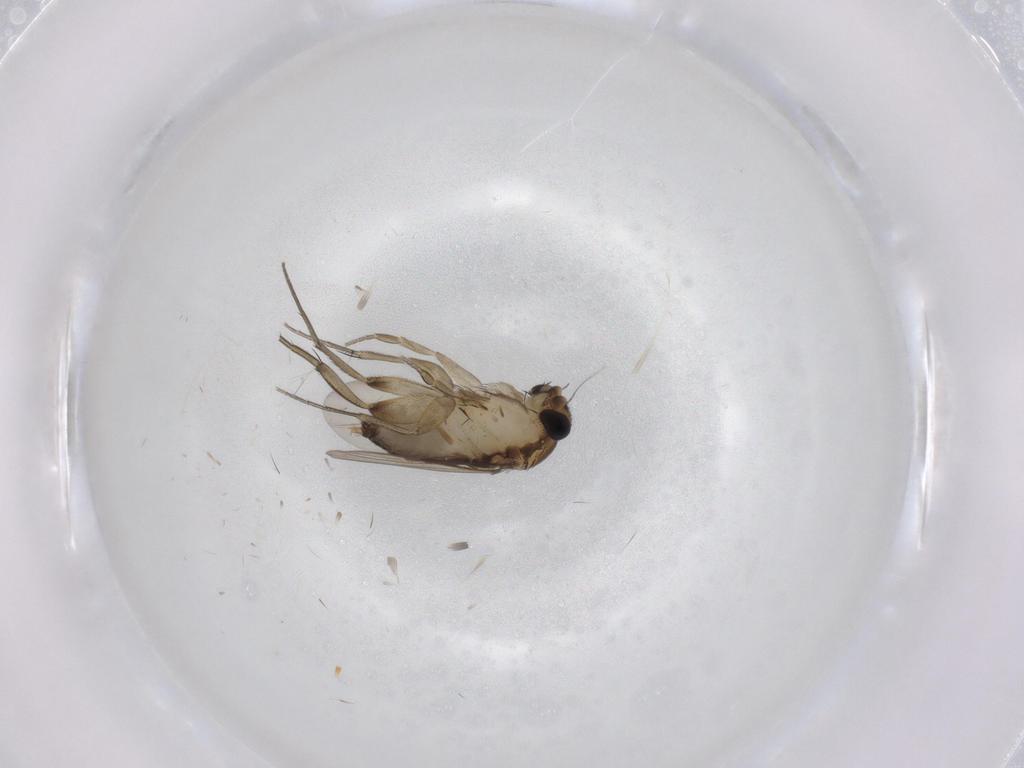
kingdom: Animalia
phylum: Arthropoda
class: Insecta
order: Diptera
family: Phoridae
